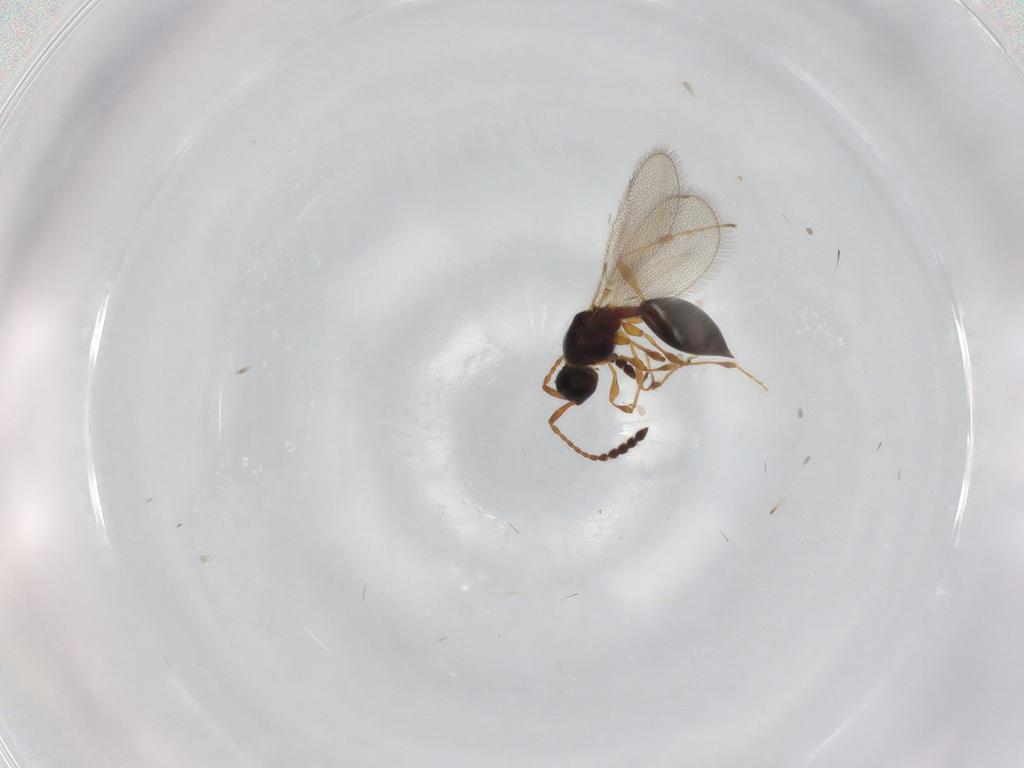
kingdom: Animalia
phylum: Arthropoda
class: Insecta
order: Hymenoptera
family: Diapriidae
